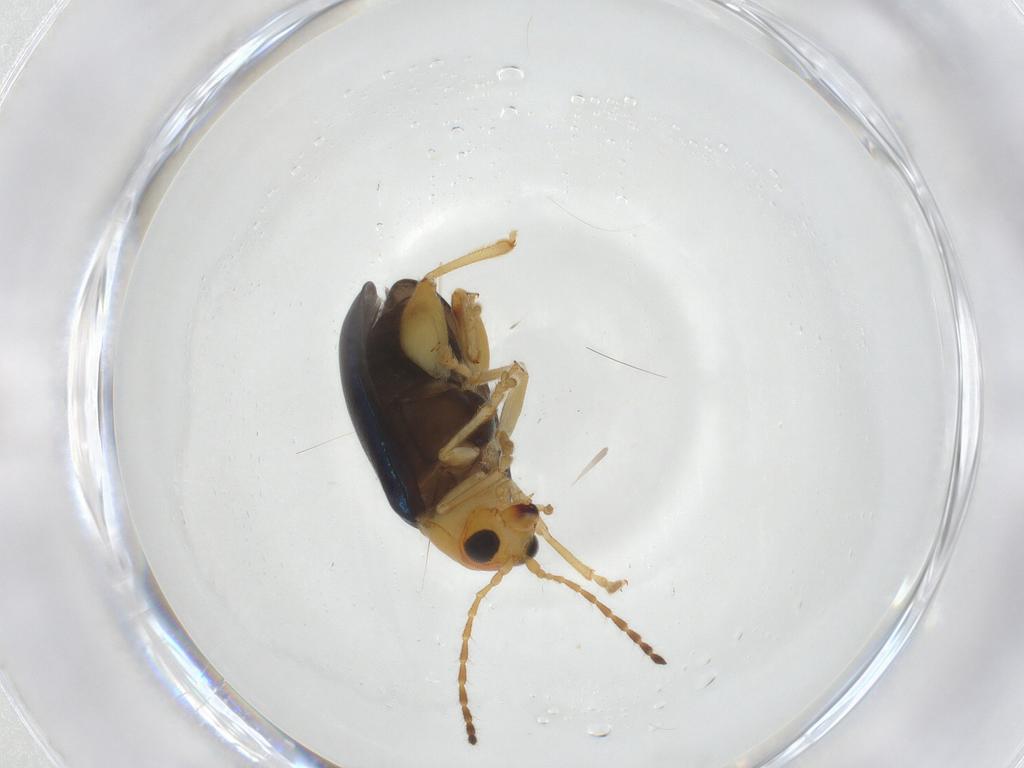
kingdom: Animalia
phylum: Arthropoda
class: Insecta
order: Coleoptera
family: Chrysomelidae
